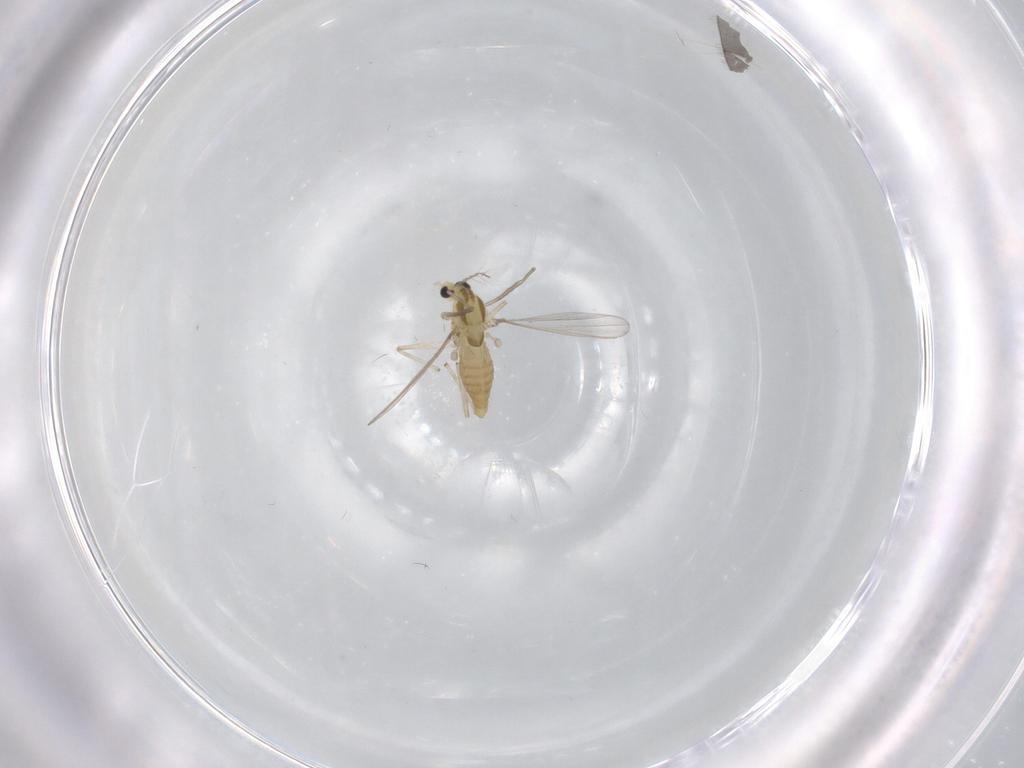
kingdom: Animalia
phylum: Arthropoda
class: Insecta
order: Diptera
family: Chironomidae
